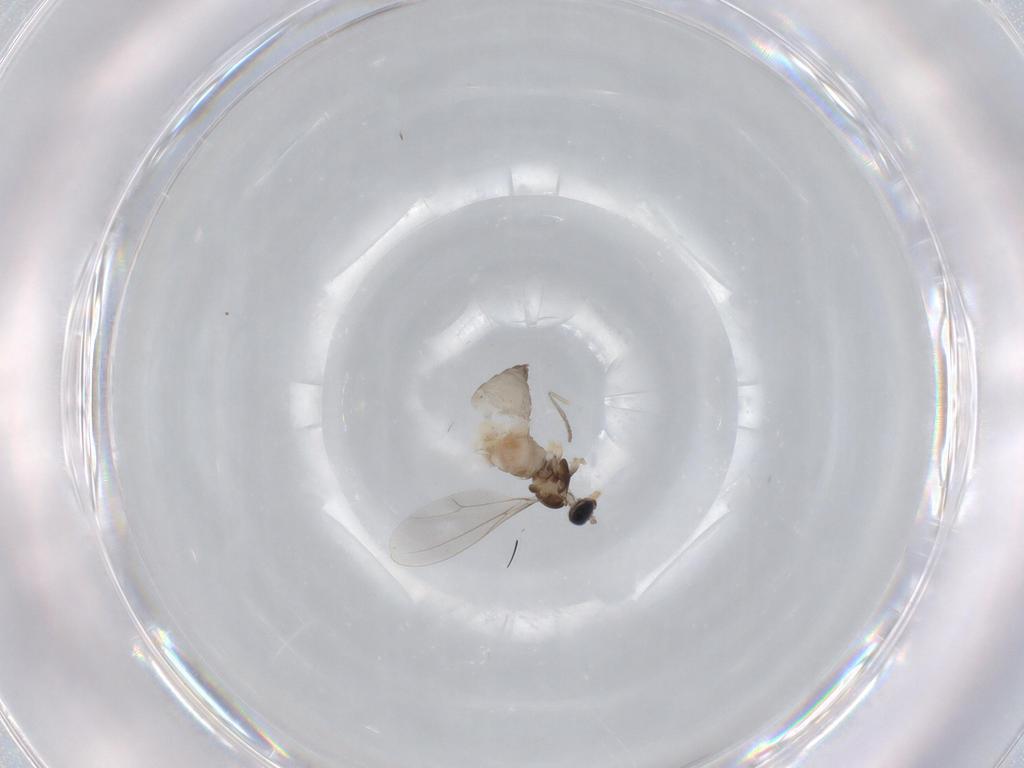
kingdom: Animalia
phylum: Arthropoda
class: Insecta
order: Diptera
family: Cecidomyiidae
